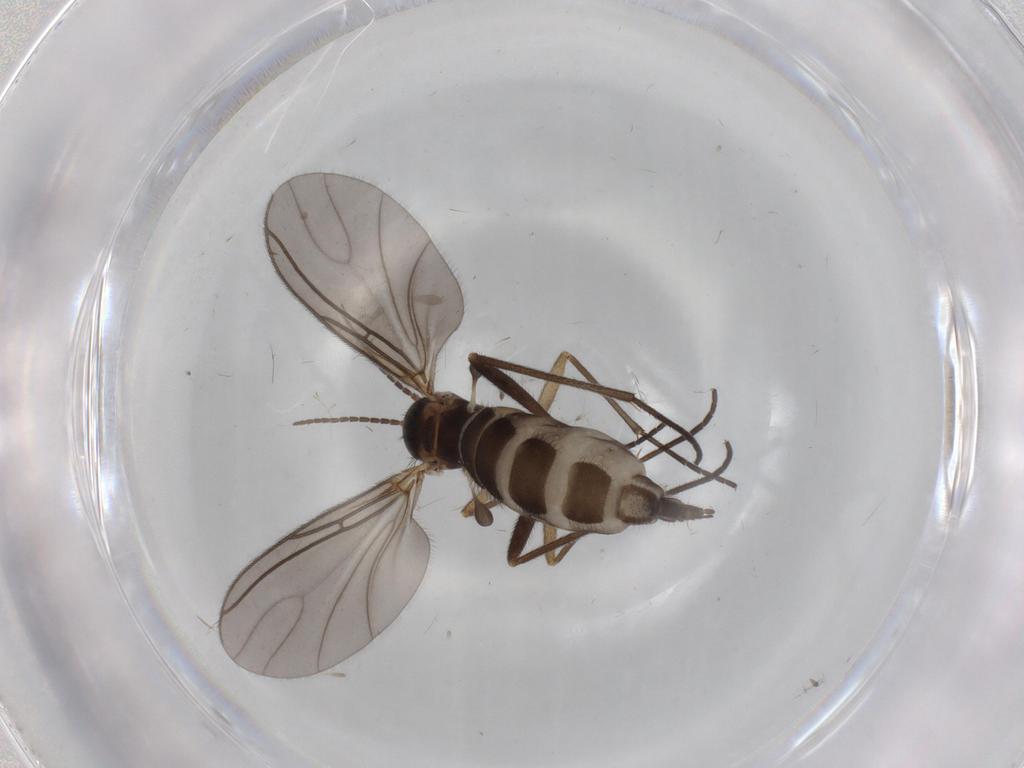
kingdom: Animalia
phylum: Arthropoda
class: Insecta
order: Diptera
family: Sciaridae
